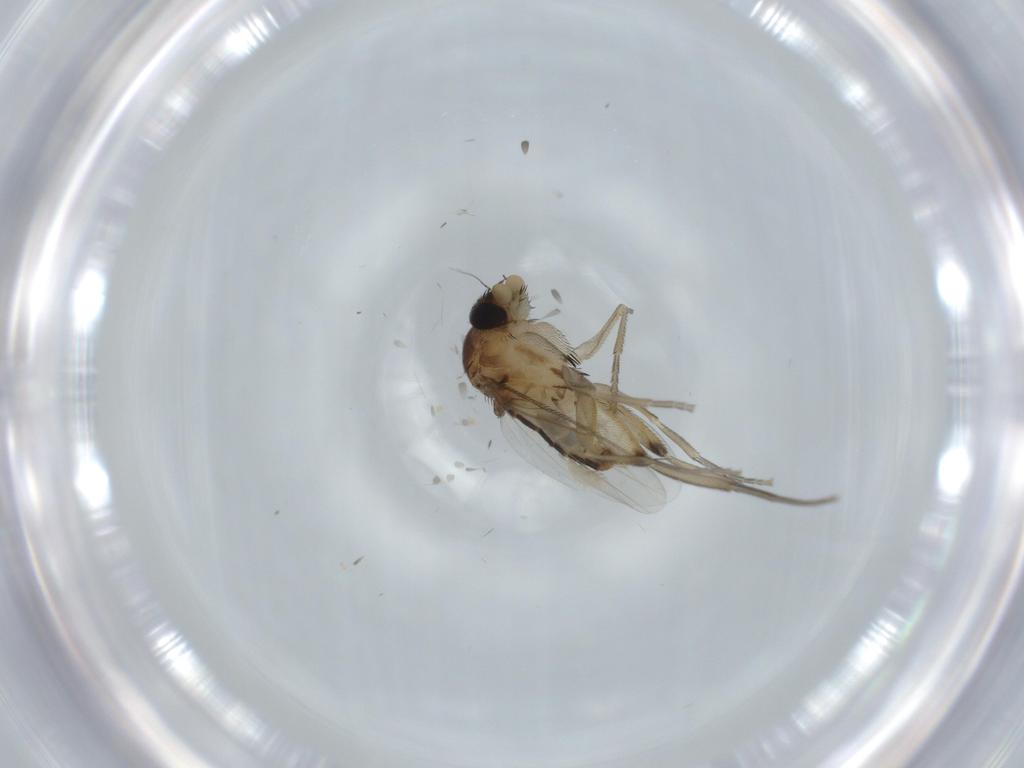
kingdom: Animalia
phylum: Arthropoda
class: Insecta
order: Diptera
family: Phoridae
